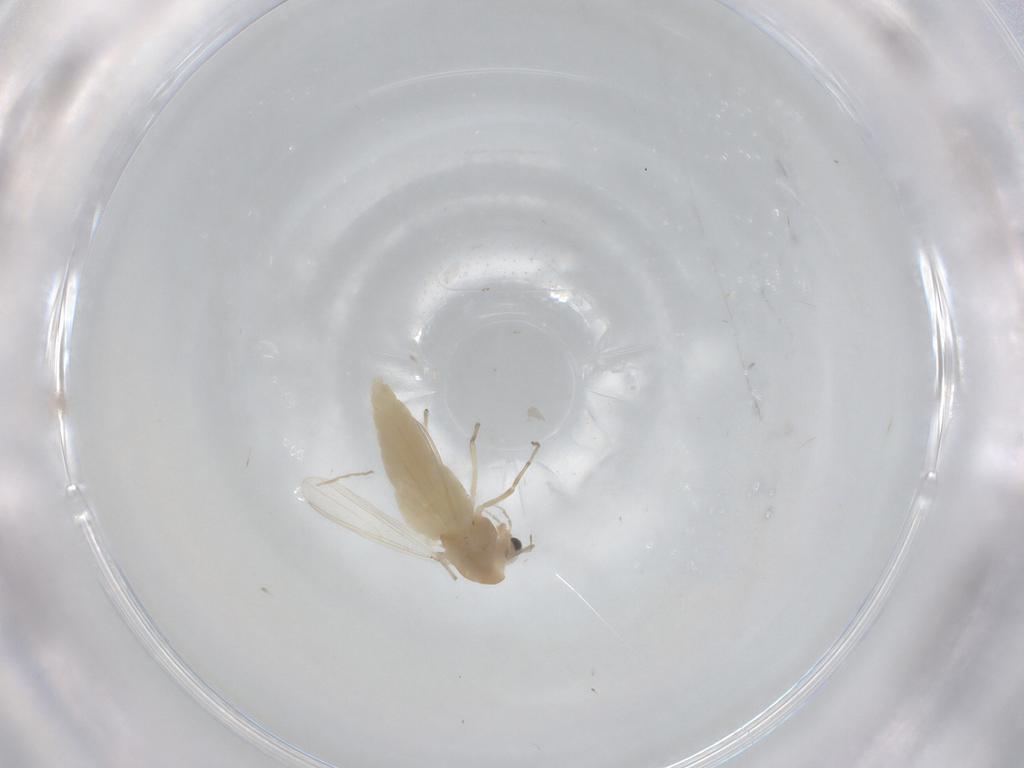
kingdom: Animalia
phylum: Arthropoda
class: Insecta
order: Diptera
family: Chironomidae
